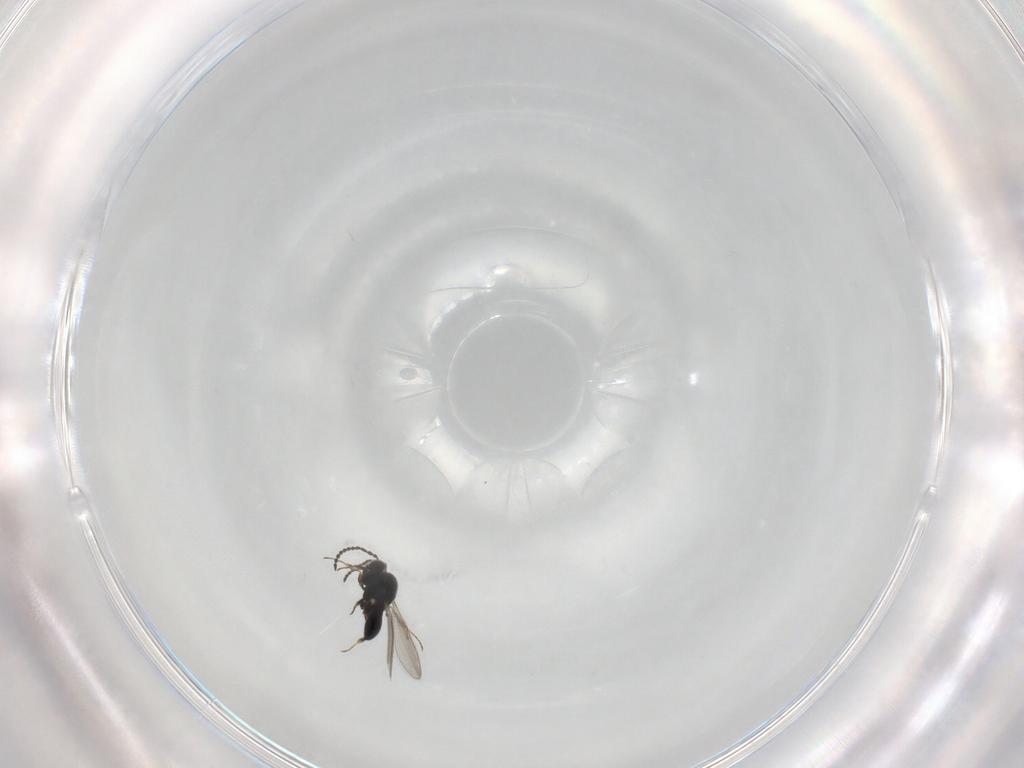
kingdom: Animalia
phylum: Arthropoda
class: Insecta
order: Hymenoptera
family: Scelionidae
